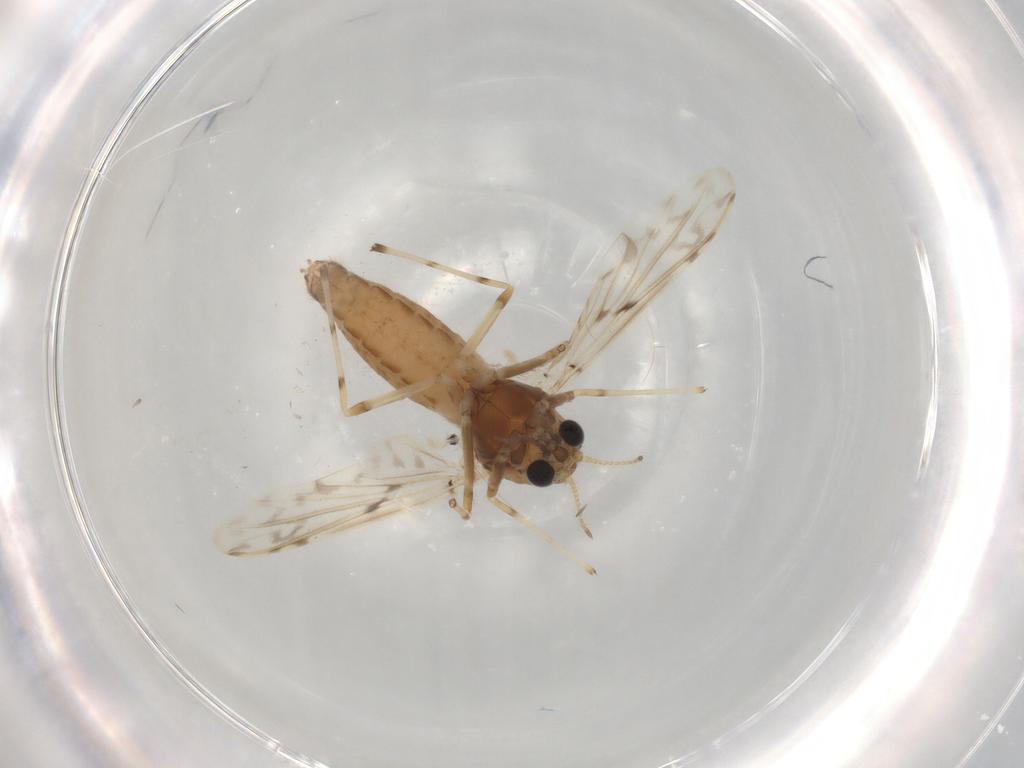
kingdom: Animalia
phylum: Arthropoda
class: Insecta
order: Diptera
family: Chironomidae
